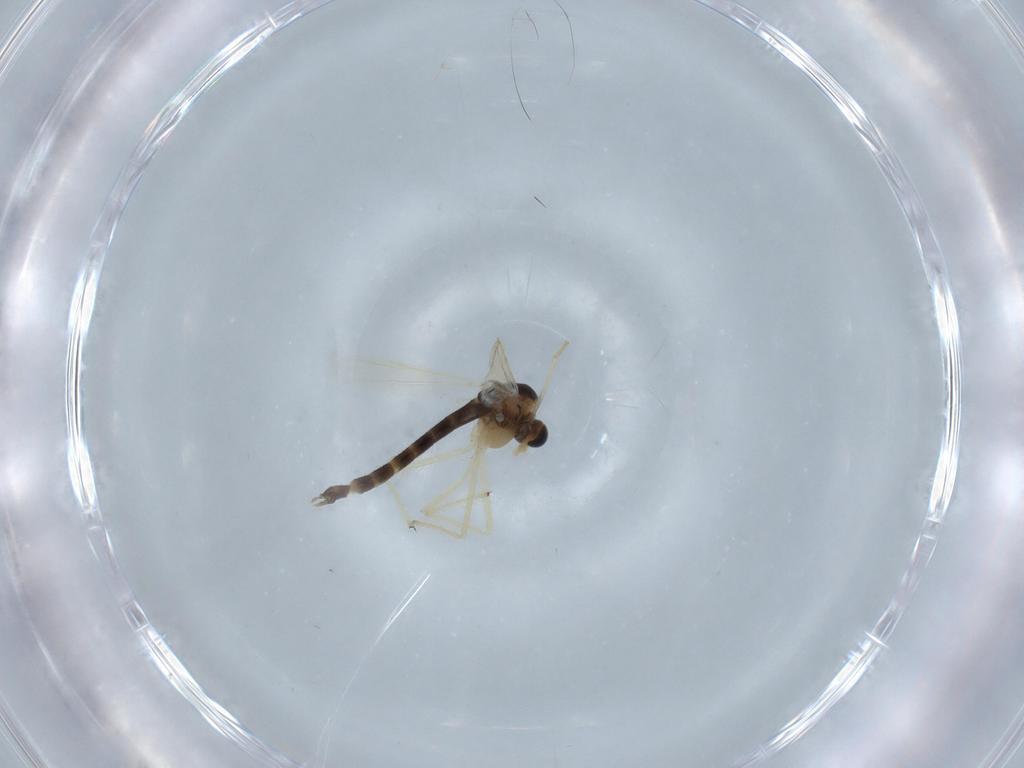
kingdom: Animalia
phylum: Arthropoda
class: Insecta
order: Diptera
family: Chironomidae
